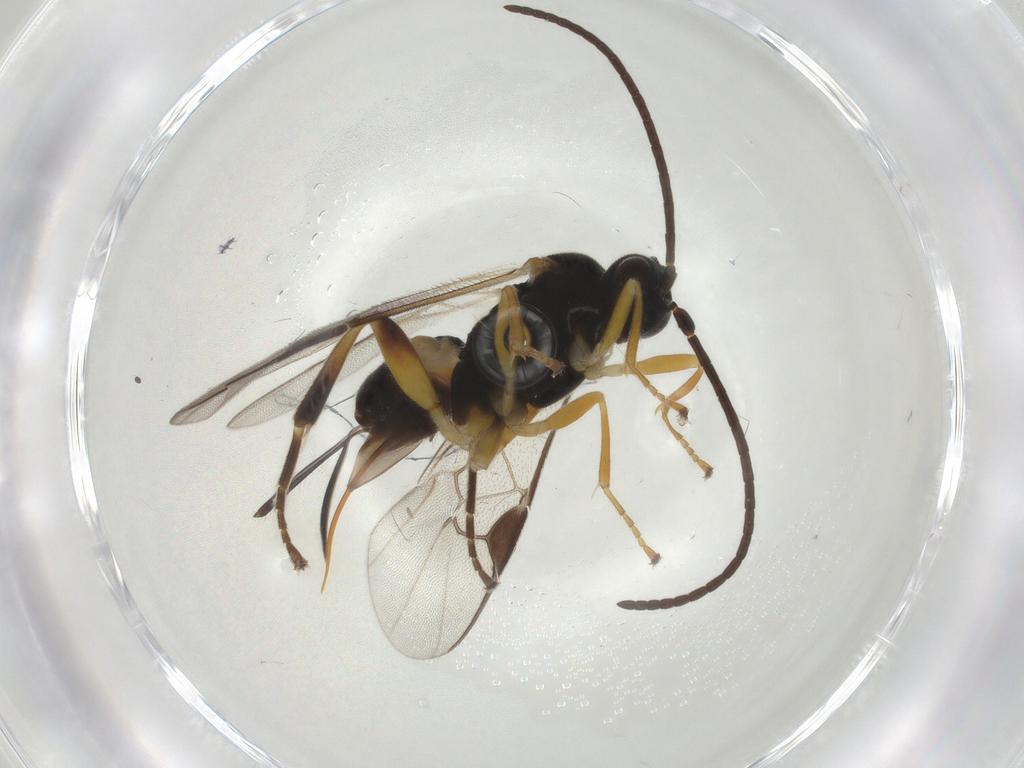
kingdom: Animalia
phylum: Arthropoda
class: Insecta
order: Hymenoptera
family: Braconidae
